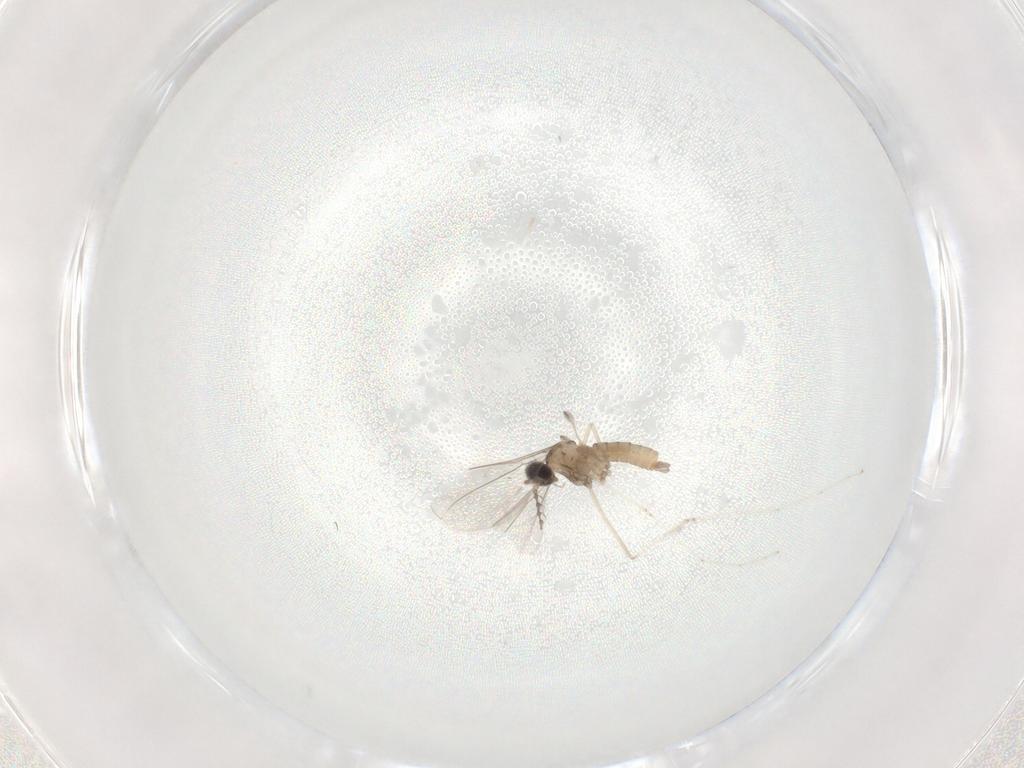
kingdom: Animalia
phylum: Arthropoda
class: Insecta
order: Diptera
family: Cecidomyiidae
